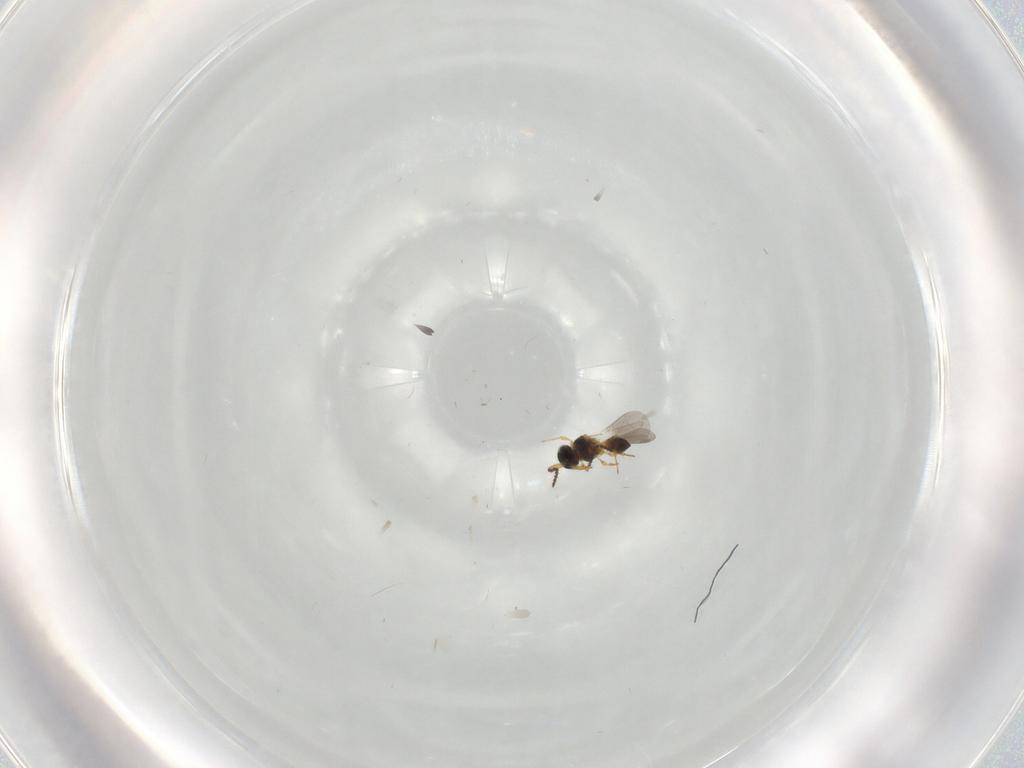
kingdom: Animalia
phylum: Arthropoda
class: Insecta
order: Hymenoptera
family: Platygastridae
